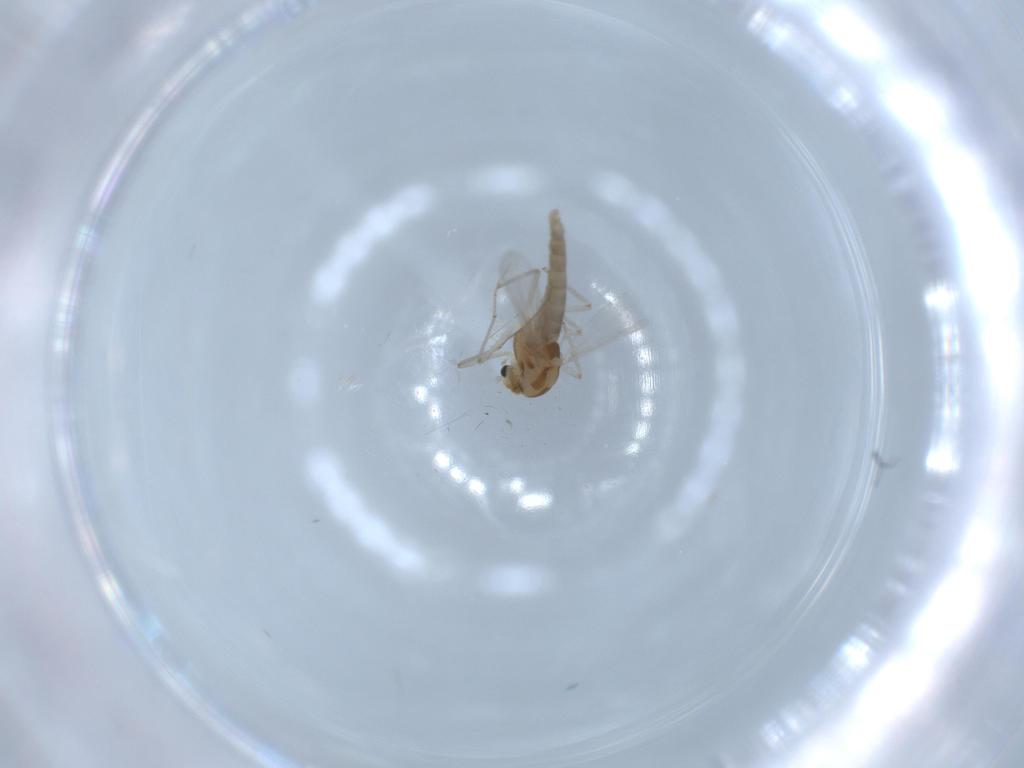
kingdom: Animalia
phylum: Arthropoda
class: Insecta
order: Diptera
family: Chironomidae
